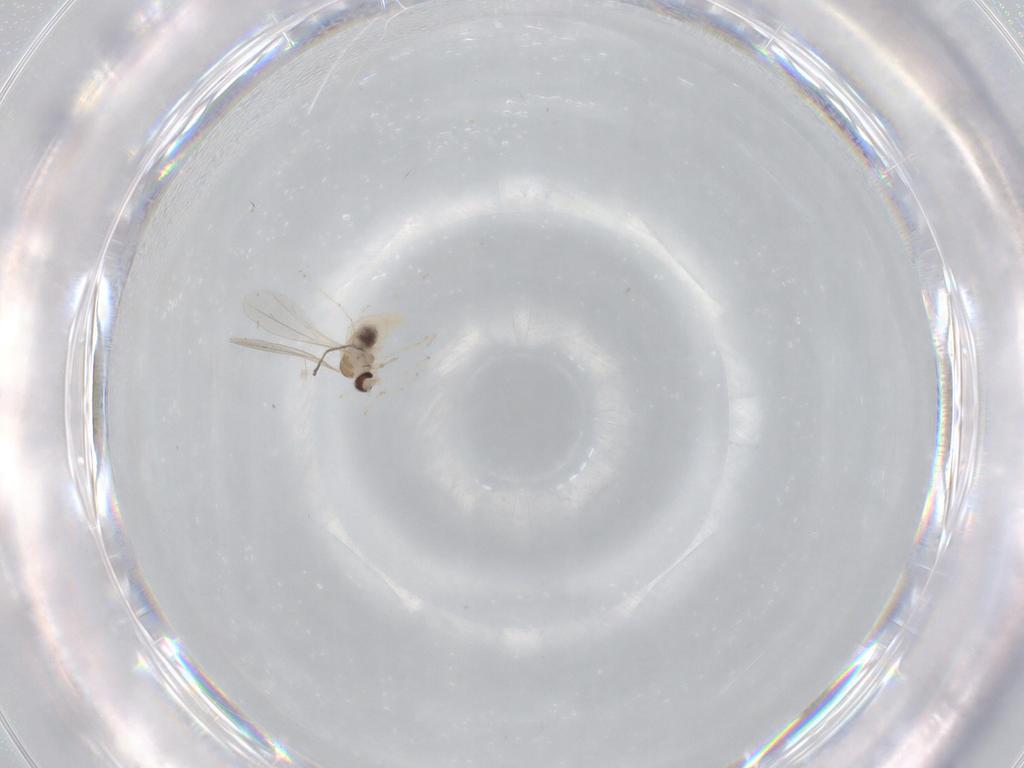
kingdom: Animalia
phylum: Arthropoda
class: Insecta
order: Diptera
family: Cecidomyiidae
